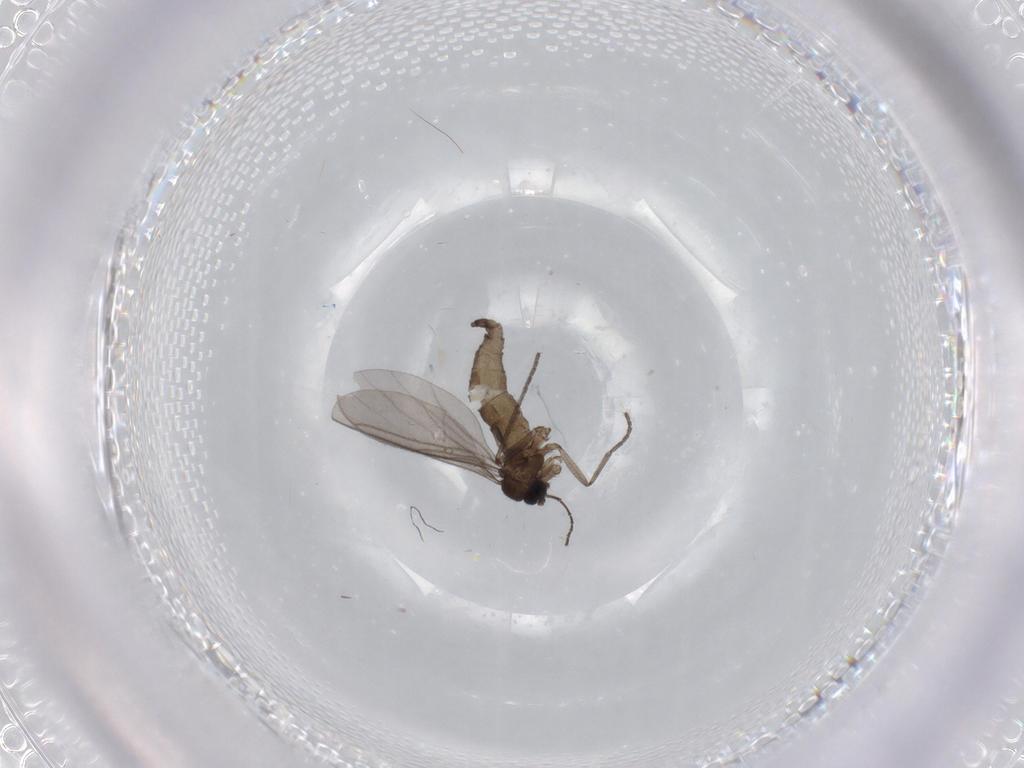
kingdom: Animalia
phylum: Arthropoda
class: Insecta
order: Diptera
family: Sciaridae
